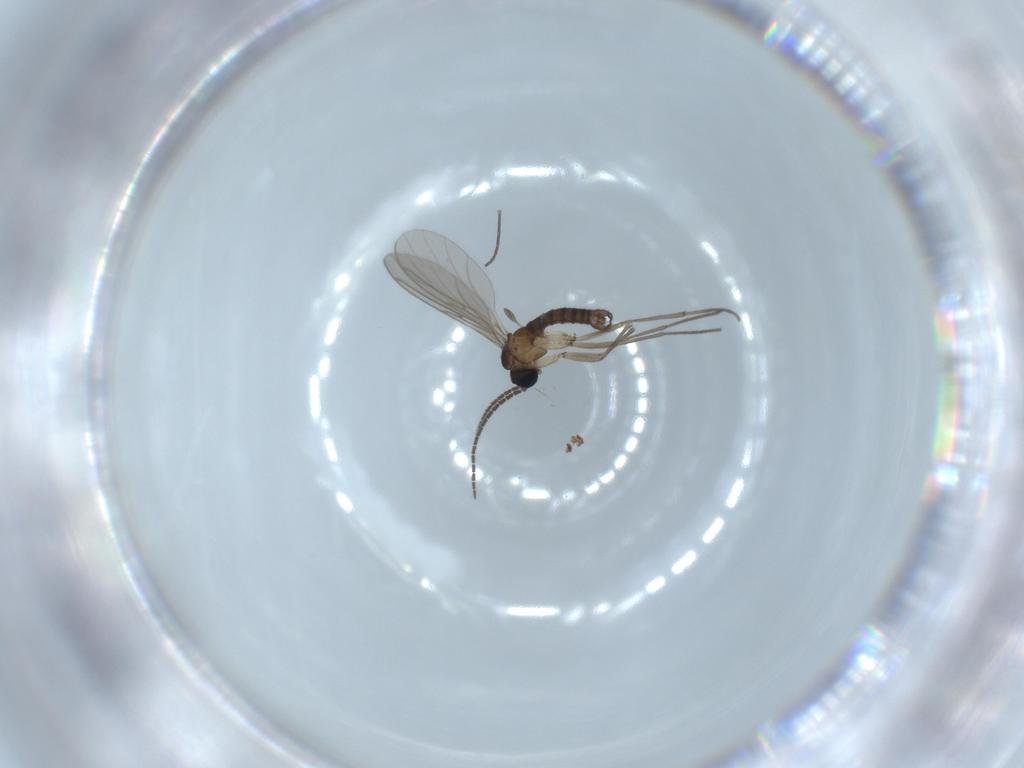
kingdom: Animalia
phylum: Arthropoda
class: Insecta
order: Diptera
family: Sciaridae
